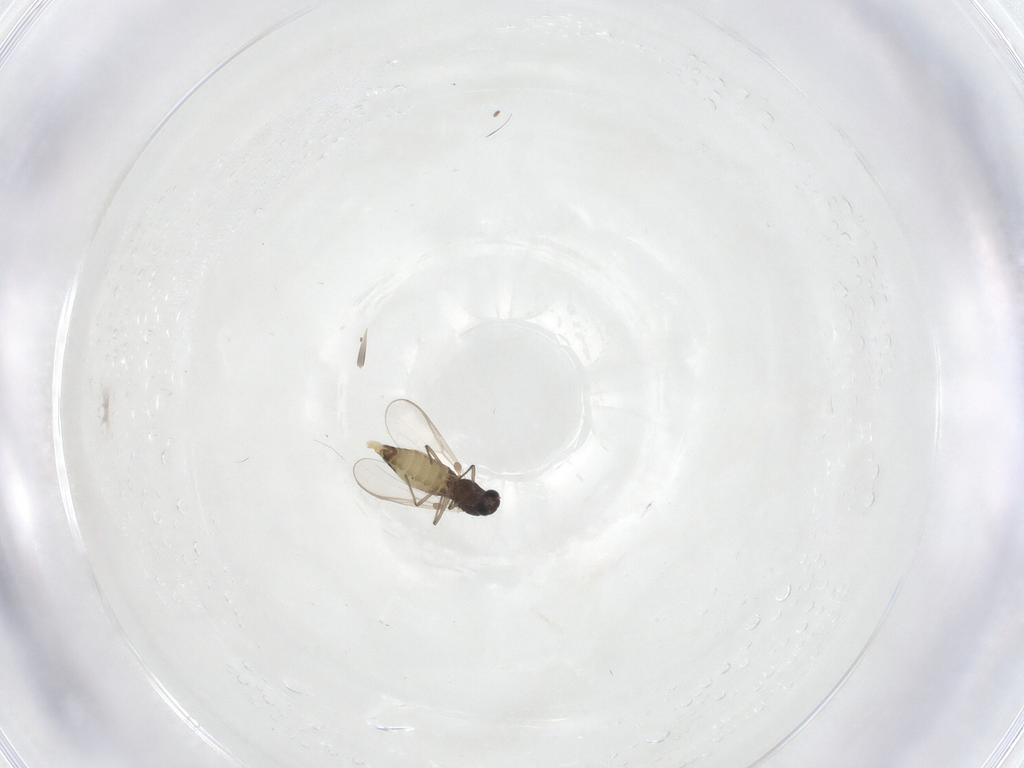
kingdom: Animalia
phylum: Arthropoda
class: Insecta
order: Diptera
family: Chironomidae
